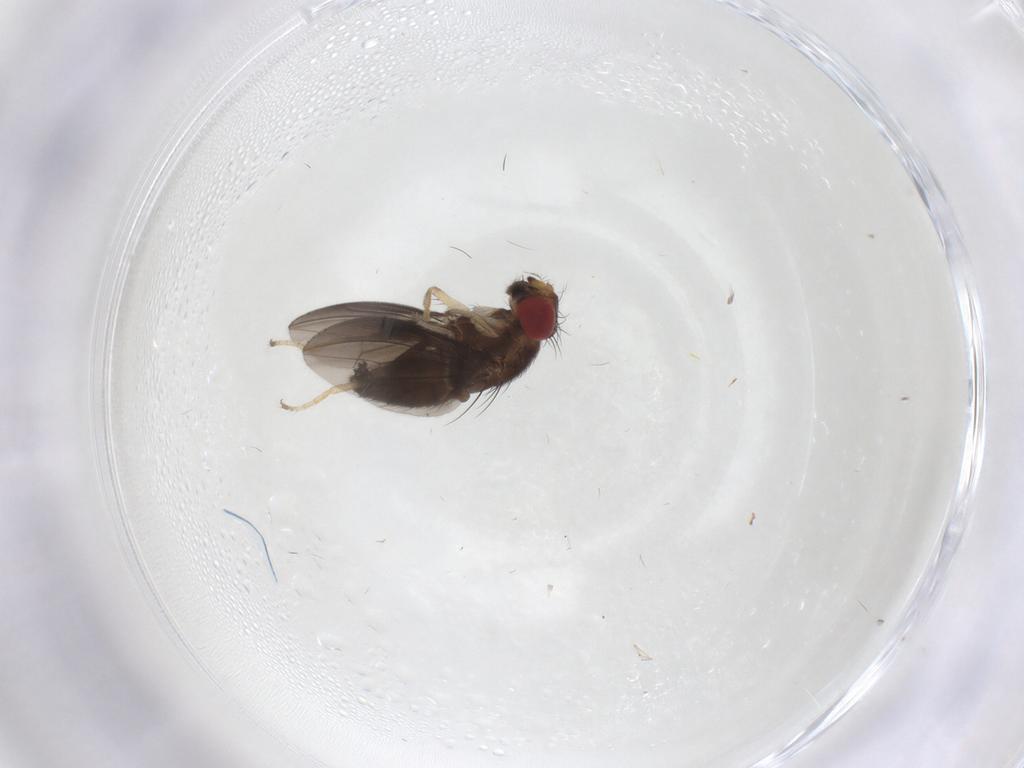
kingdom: Animalia
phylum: Arthropoda
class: Insecta
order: Diptera
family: Drosophilidae
